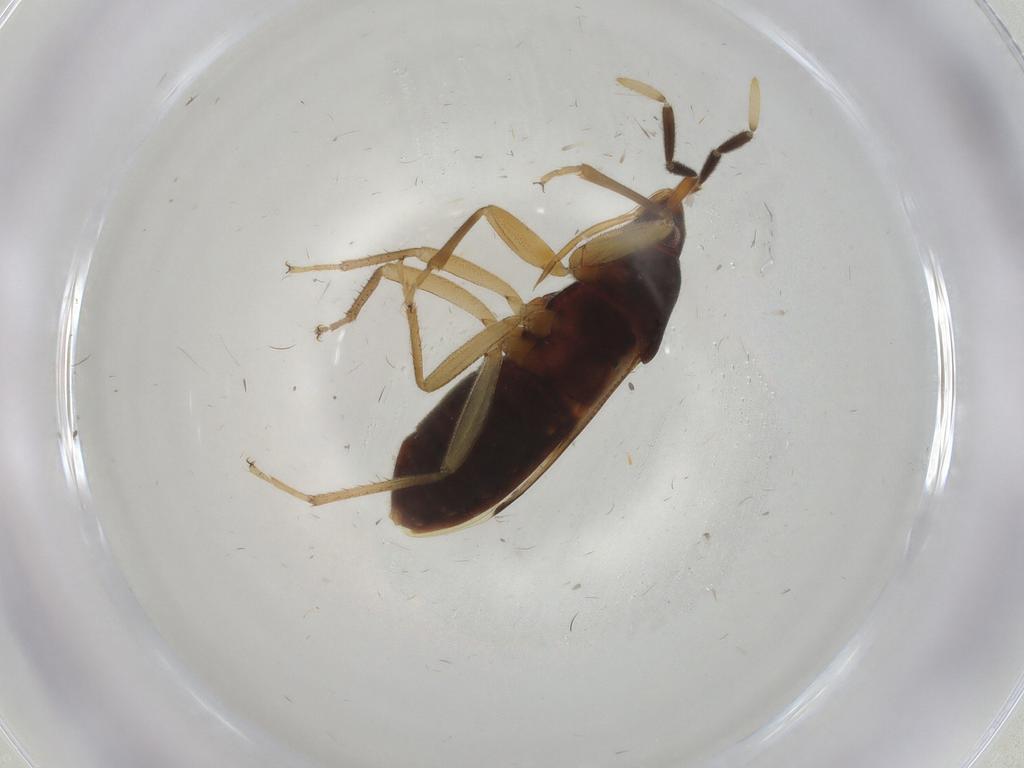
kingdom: Animalia
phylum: Arthropoda
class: Insecta
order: Hemiptera
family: Rhyparochromidae
